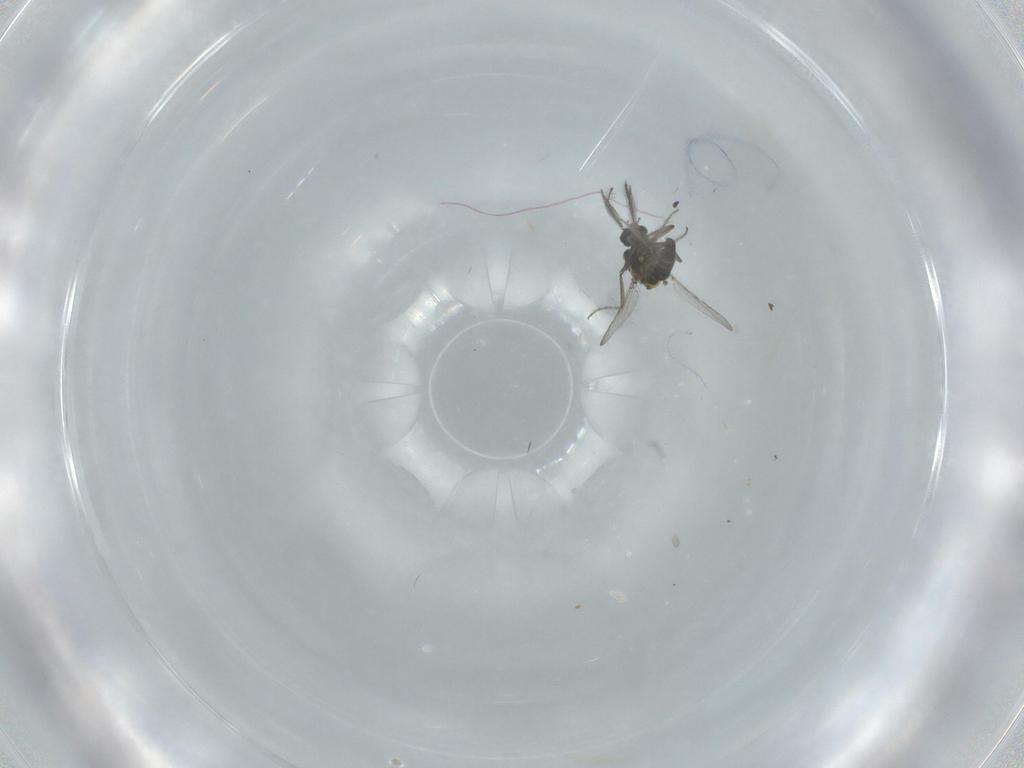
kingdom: Animalia
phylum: Arthropoda
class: Insecta
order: Diptera
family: Ceratopogonidae
